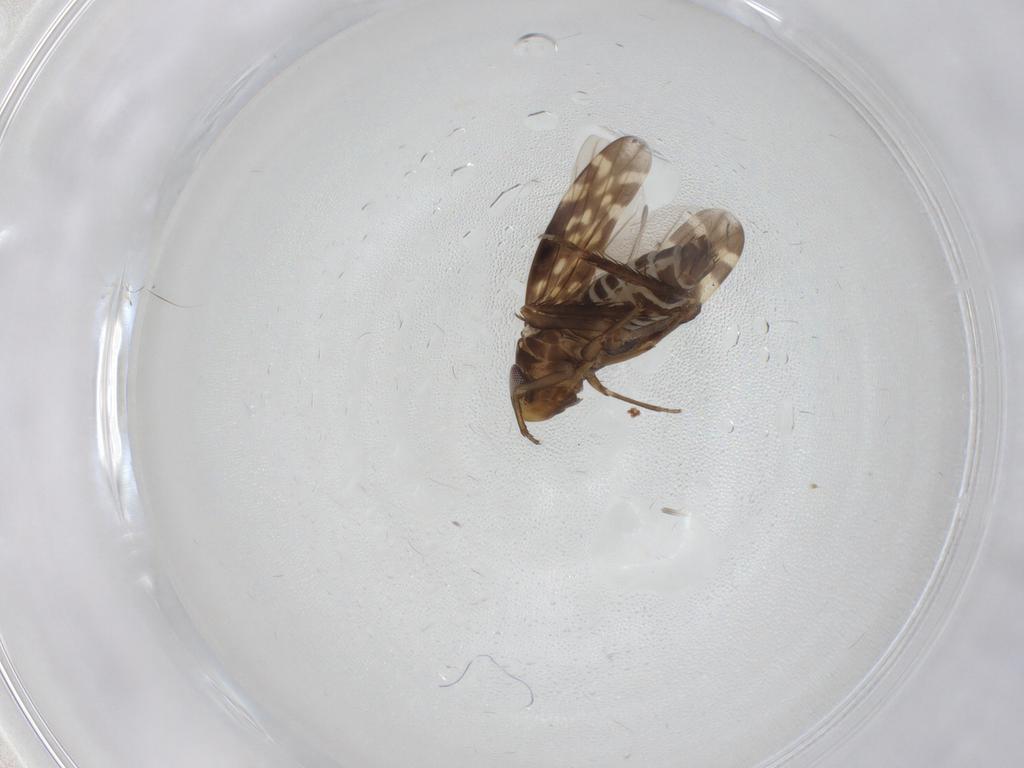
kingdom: Animalia
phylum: Arthropoda
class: Insecta
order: Hemiptera
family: Cicadellidae
